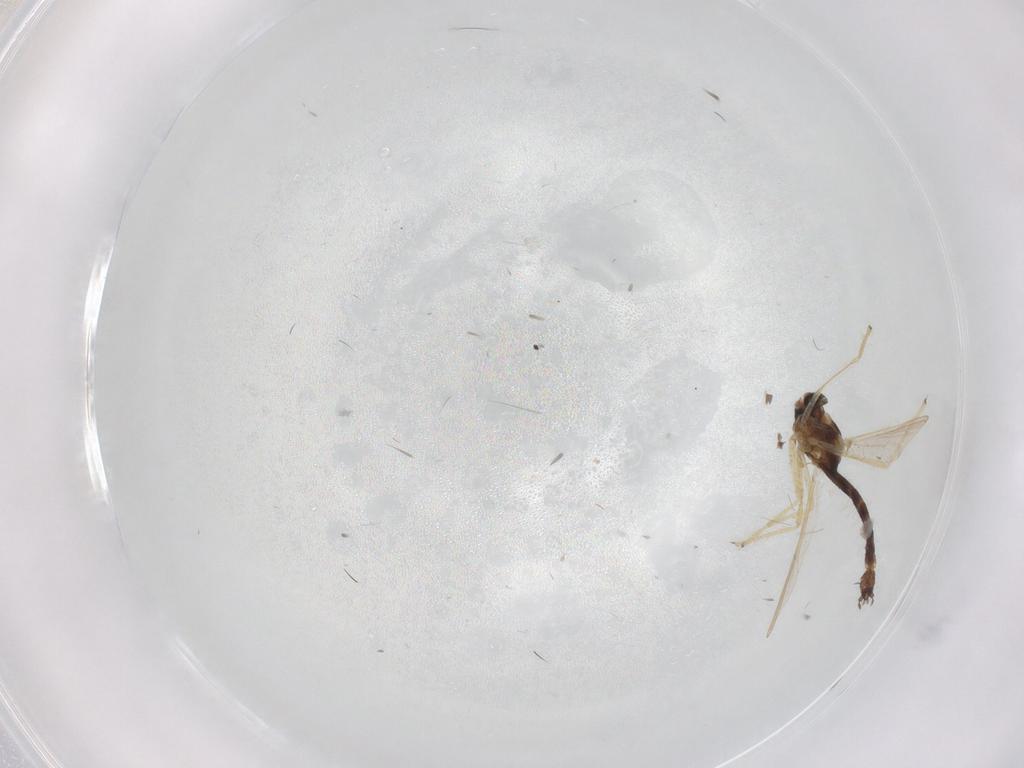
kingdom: Animalia
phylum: Arthropoda
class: Insecta
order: Diptera
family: Chironomidae
